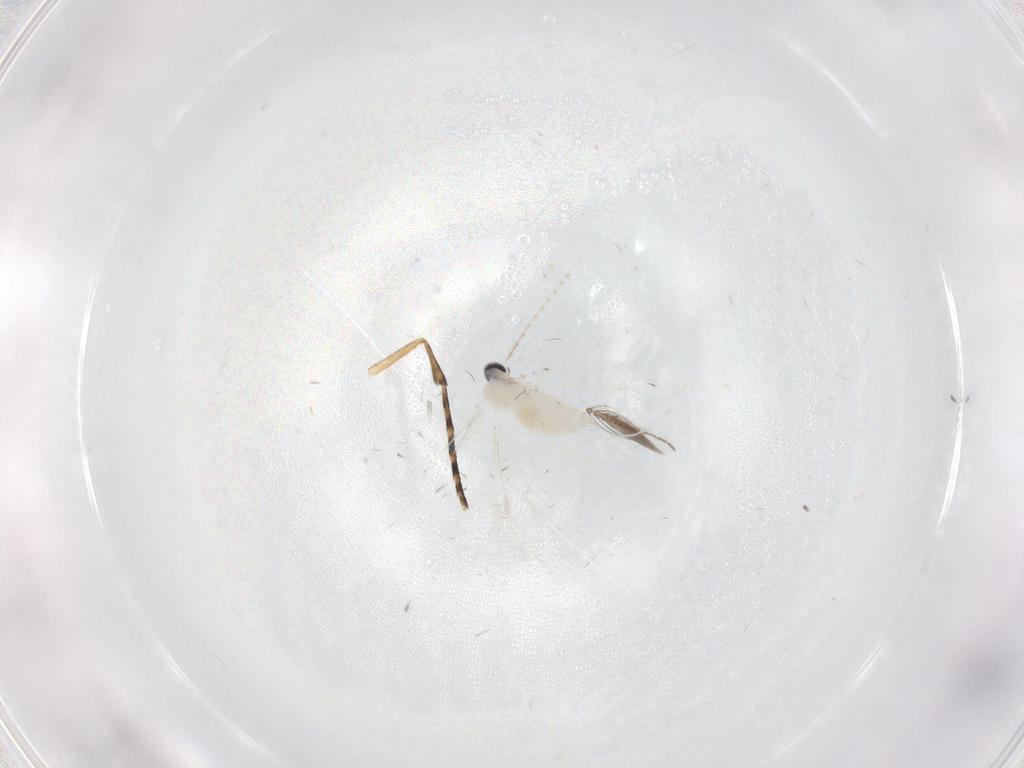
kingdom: Animalia
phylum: Arthropoda
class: Insecta
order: Diptera
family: Cecidomyiidae
